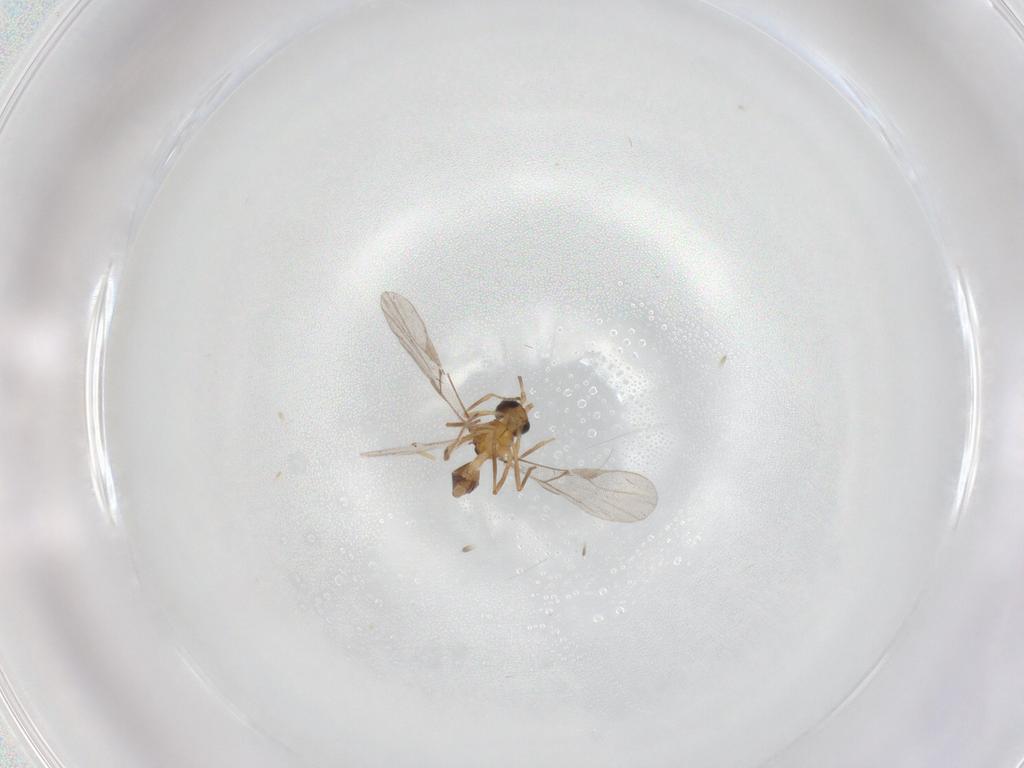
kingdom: Animalia
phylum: Arthropoda
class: Insecta
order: Hymenoptera
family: Braconidae
